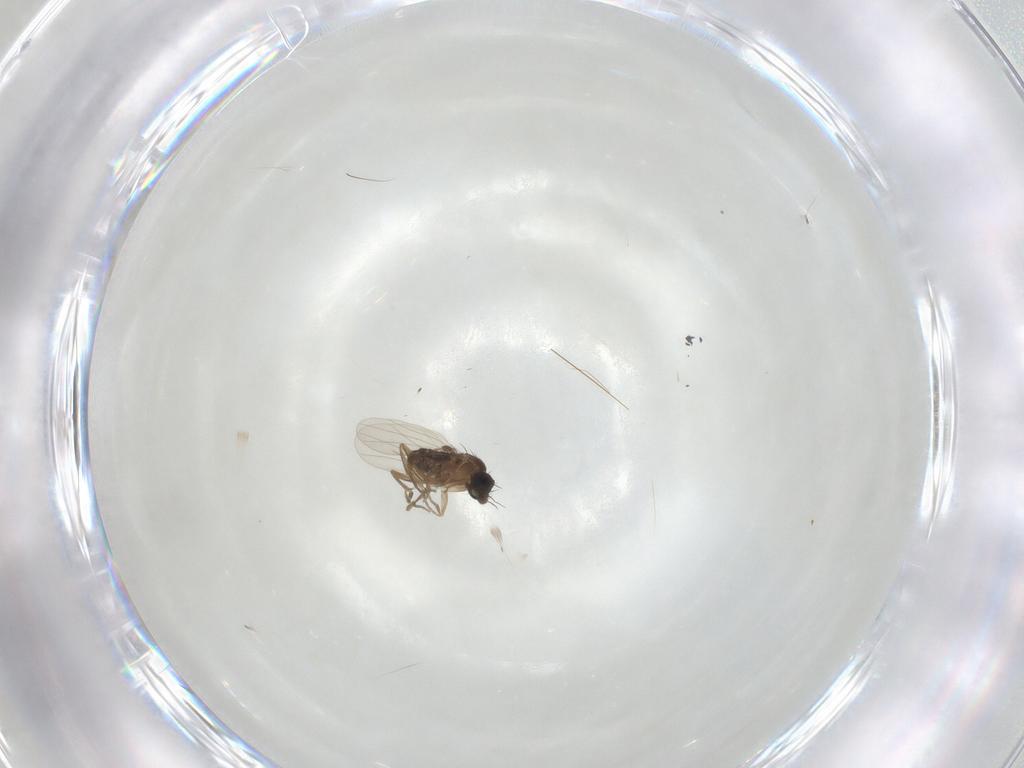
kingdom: Animalia
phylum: Arthropoda
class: Insecta
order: Diptera
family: Phoridae
